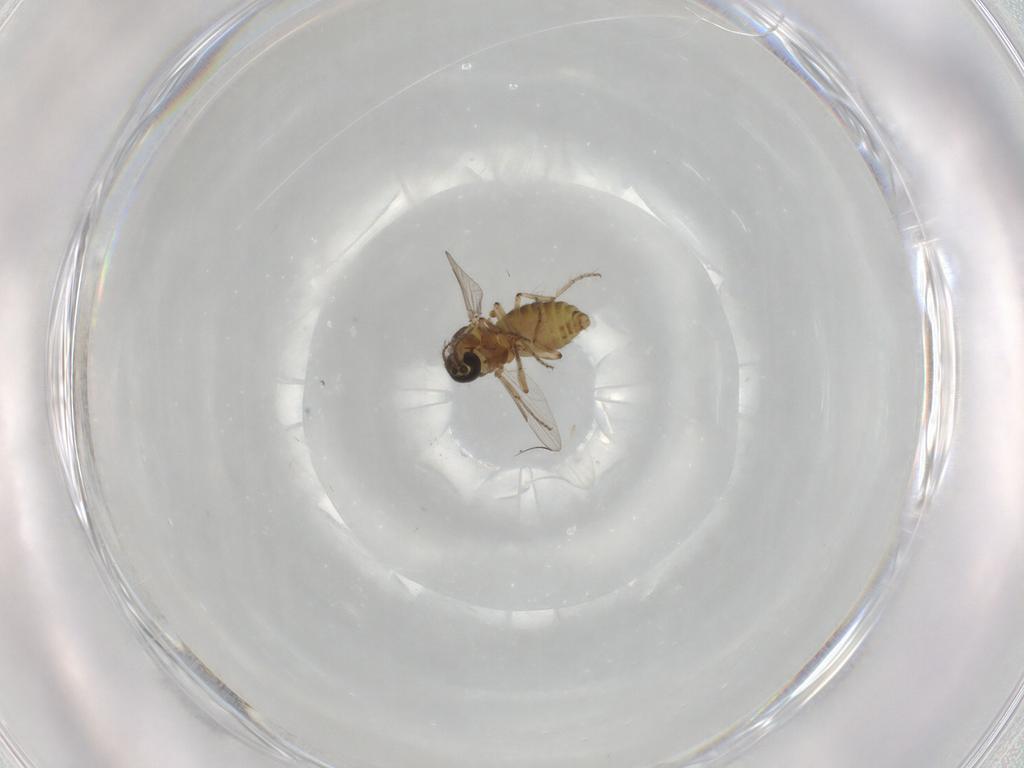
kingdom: Animalia
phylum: Arthropoda
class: Insecta
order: Diptera
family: Ceratopogonidae
